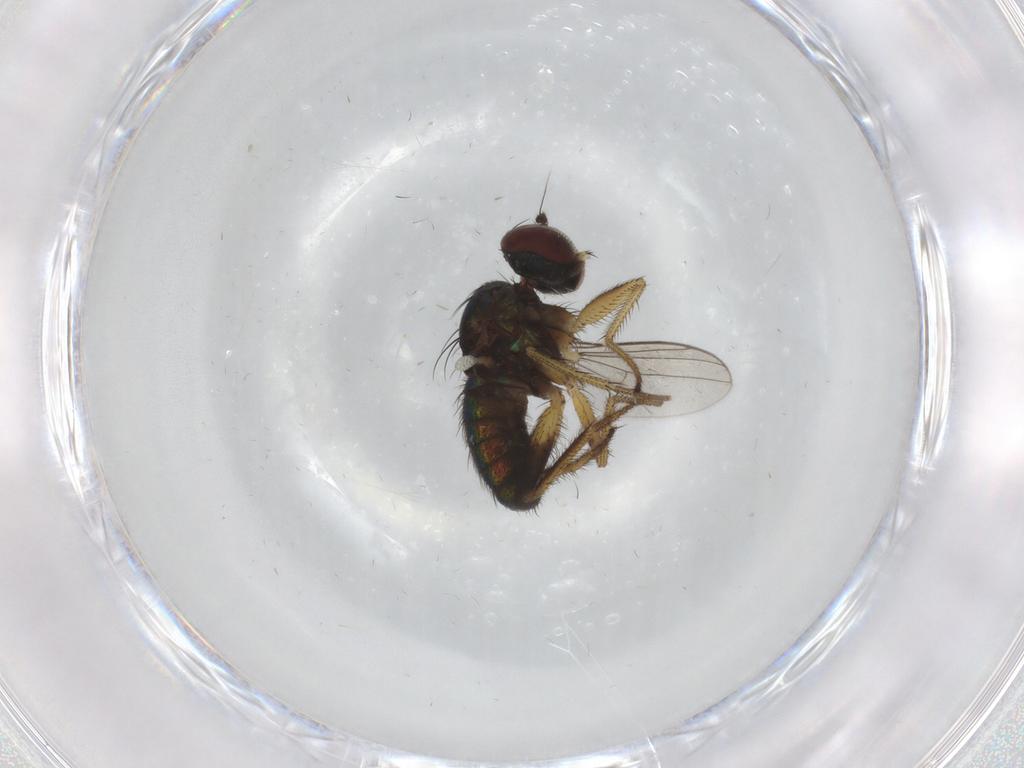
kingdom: Animalia
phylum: Arthropoda
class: Insecta
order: Diptera
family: Dolichopodidae
